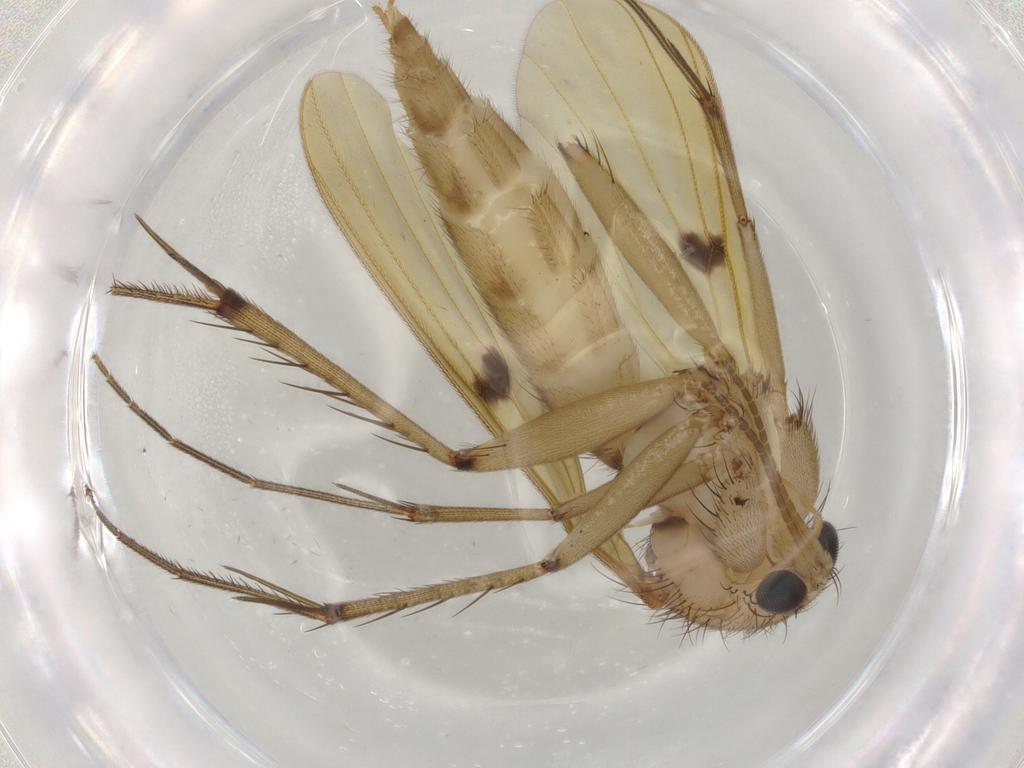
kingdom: Animalia
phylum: Arthropoda
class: Insecta
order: Diptera
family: Mycetophilidae
